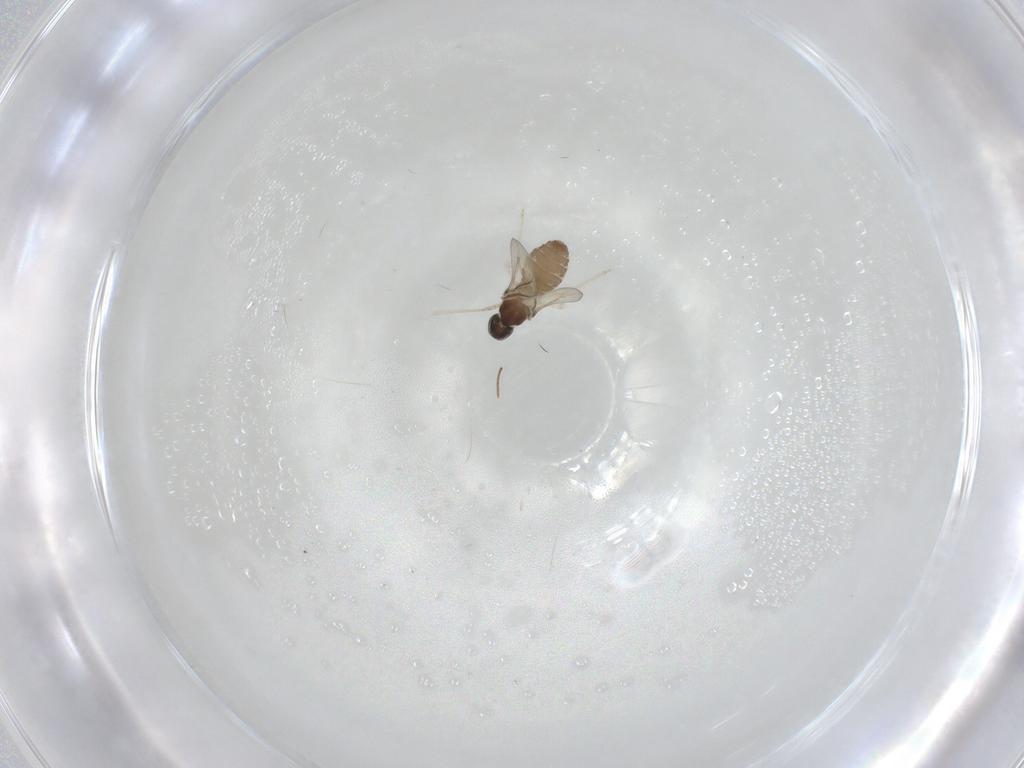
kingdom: Animalia
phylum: Arthropoda
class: Insecta
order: Diptera
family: Cecidomyiidae
